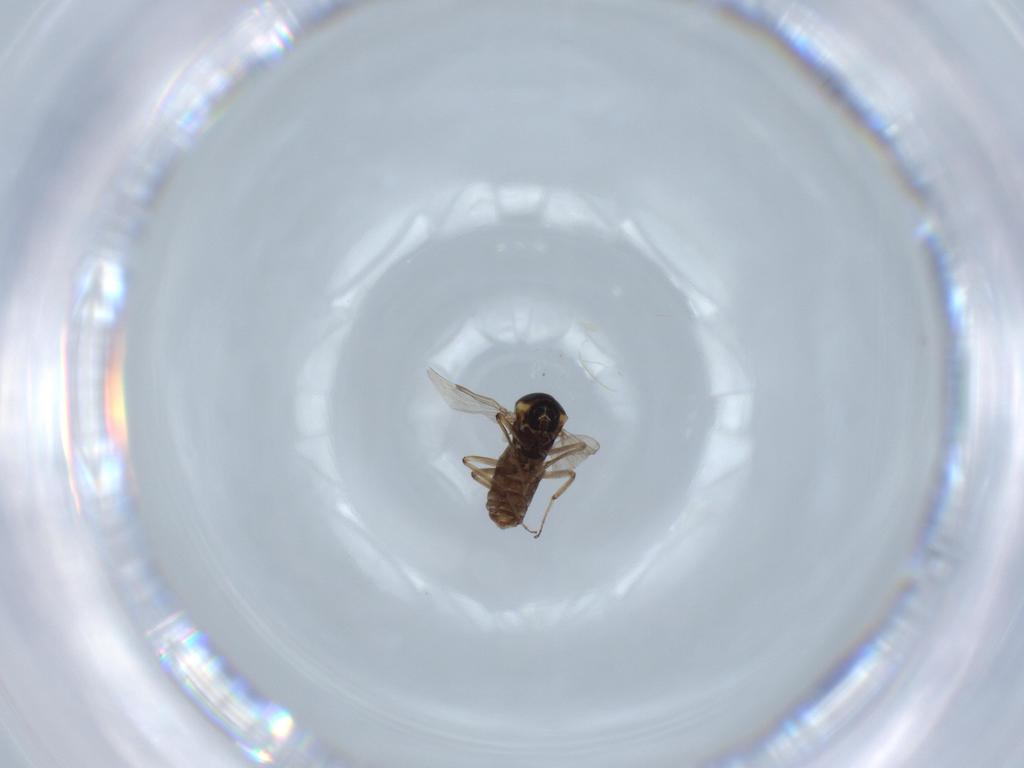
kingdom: Animalia
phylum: Arthropoda
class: Insecta
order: Diptera
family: Ceratopogonidae
